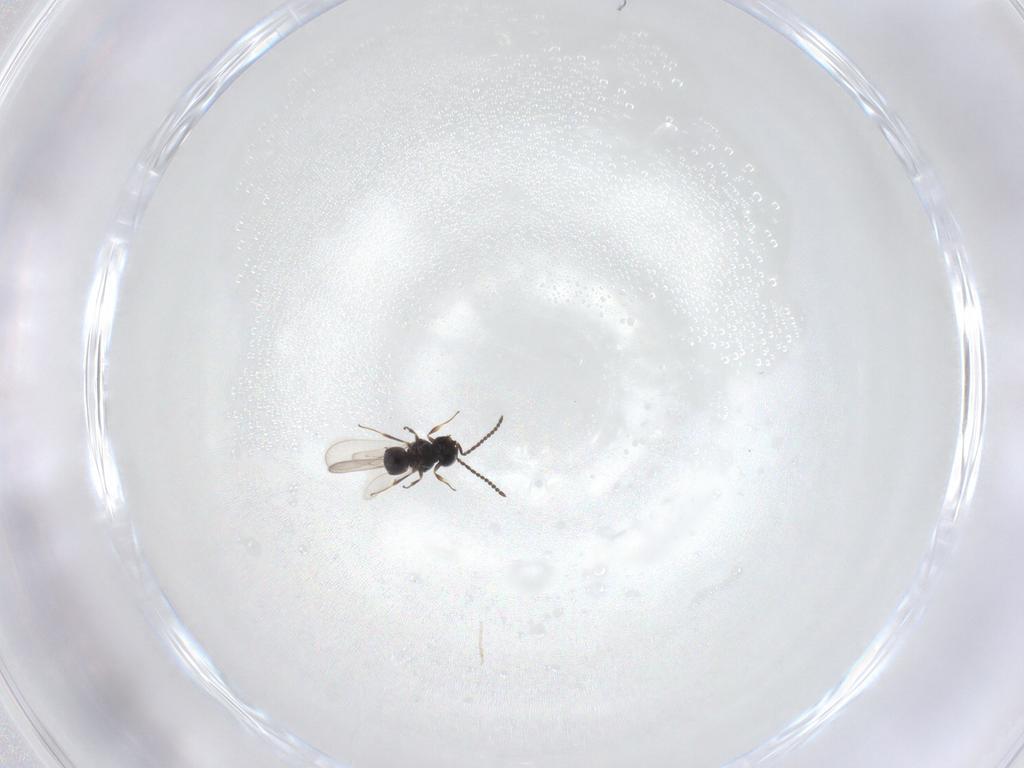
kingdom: Animalia
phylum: Arthropoda
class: Insecta
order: Hymenoptera
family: Scelionidae
